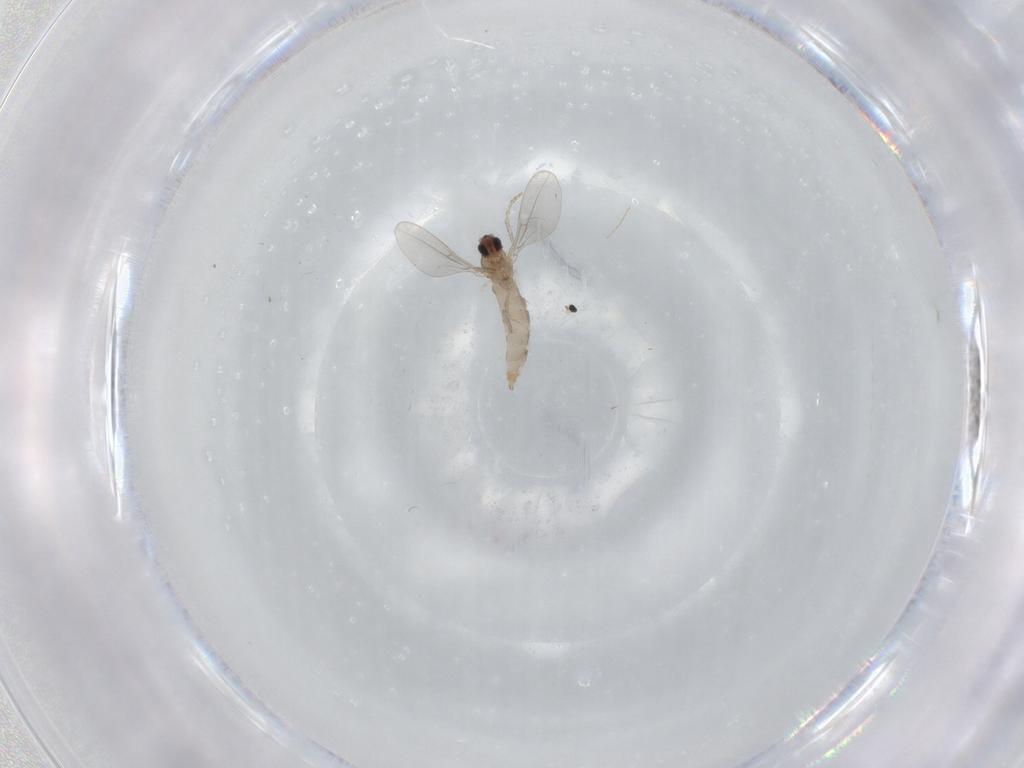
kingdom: Animalia
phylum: Arthropoda
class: Insecta
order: Diptera
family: Cecidomyiidae
